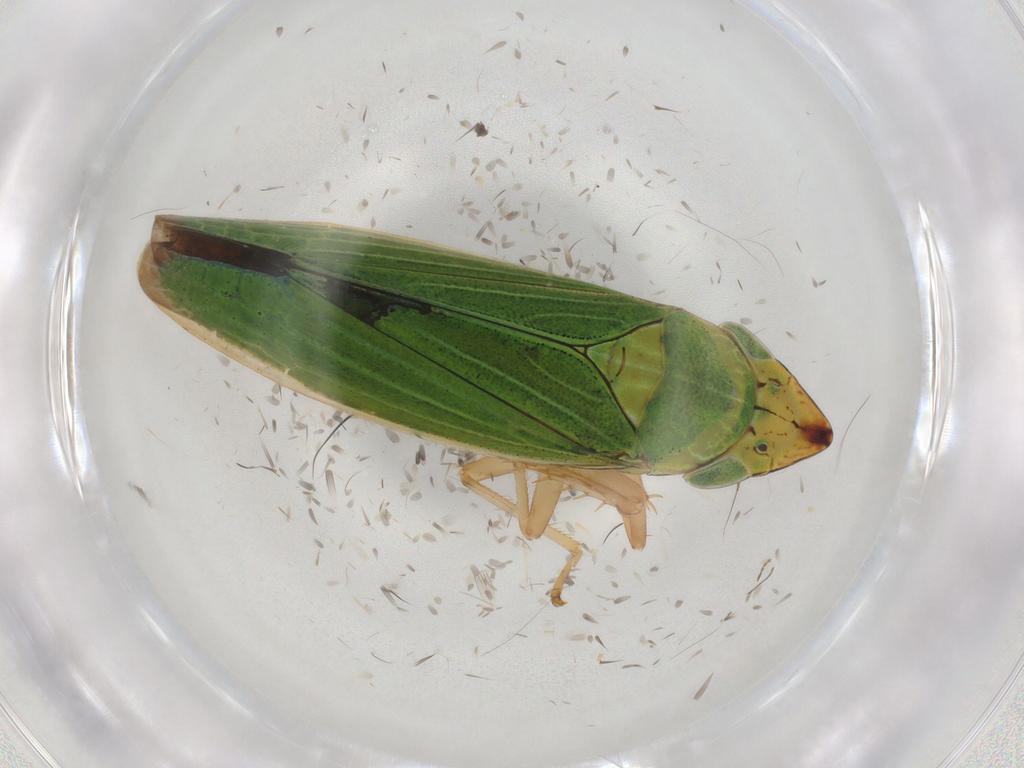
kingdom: Animalia
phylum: Arthropoda
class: Insecta
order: Hemiptera
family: Cicadellidae
